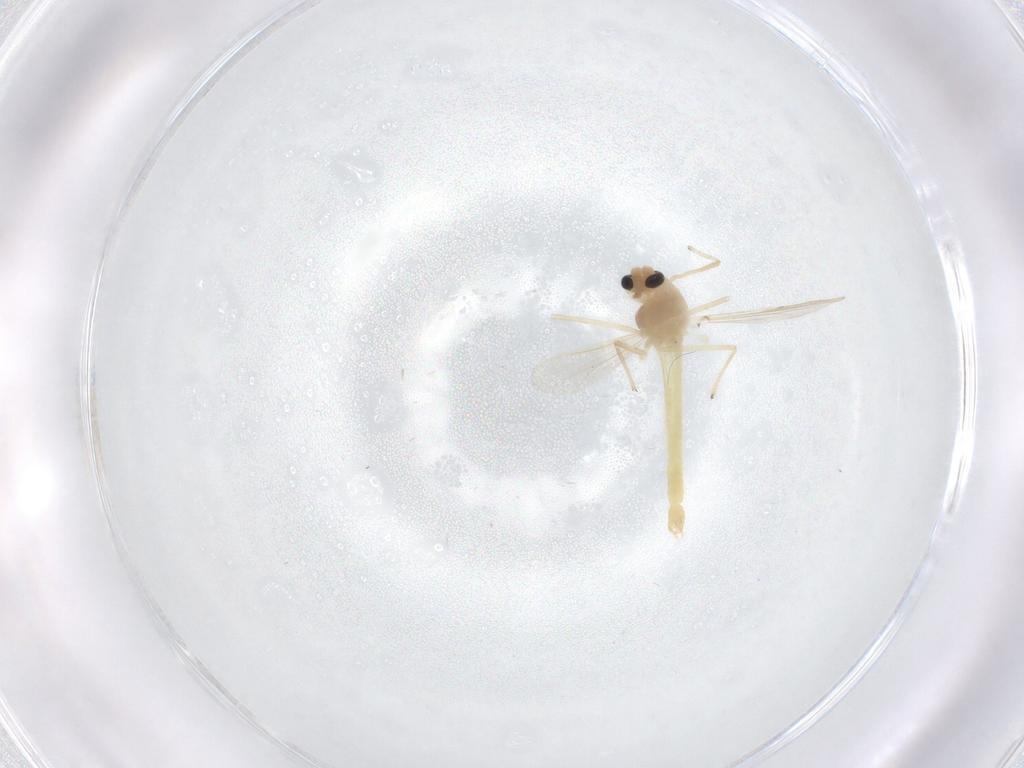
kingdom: Animalia
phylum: Arthropoda
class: Insecta
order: Diptera
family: Chironomidae
